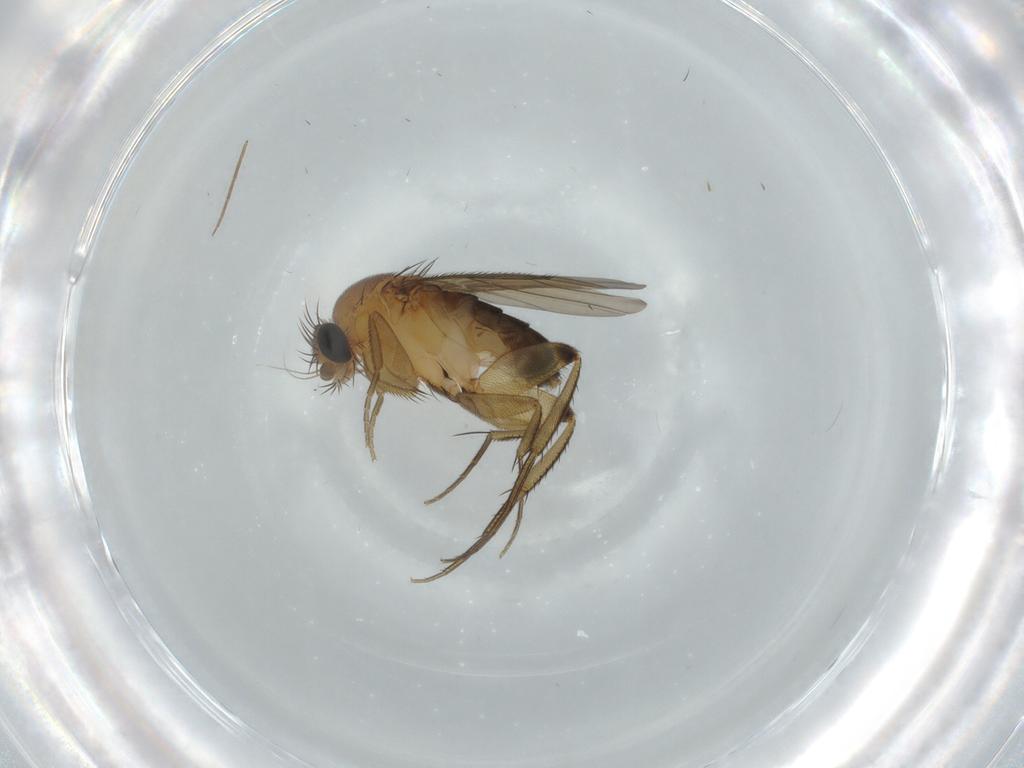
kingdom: Animalia
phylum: Arthropoda
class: Insecta
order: Diptera
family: Phoridae
